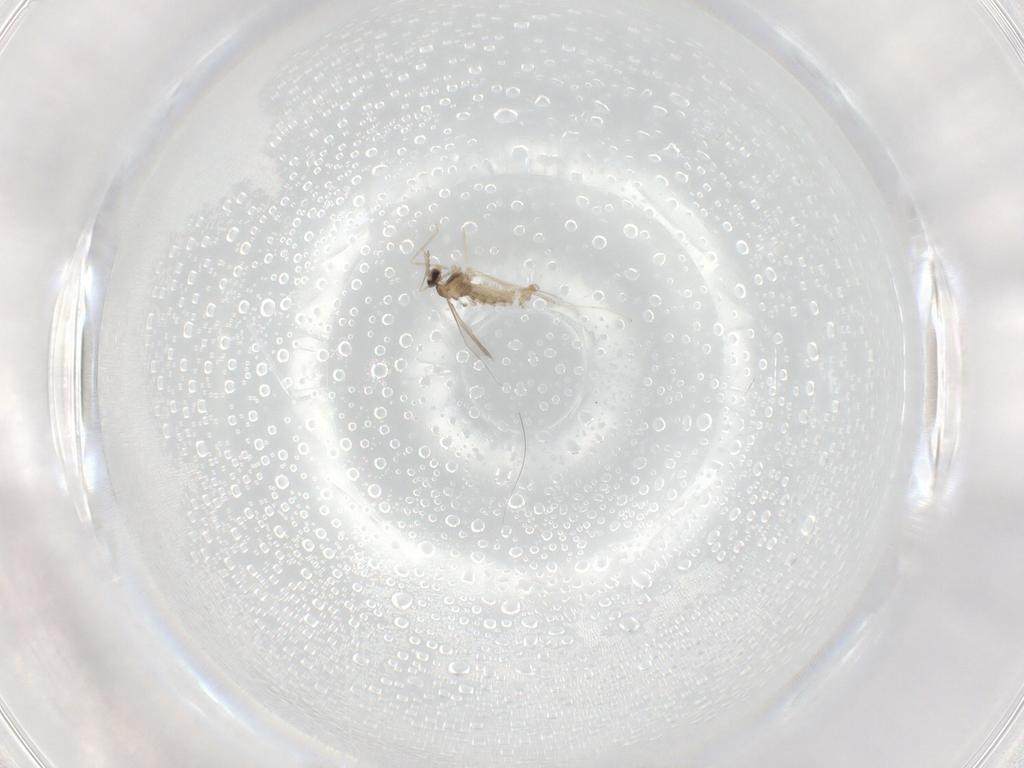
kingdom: Animalia
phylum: Arthropoda
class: Insecta
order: Diptera
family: Cecidomyiidae
